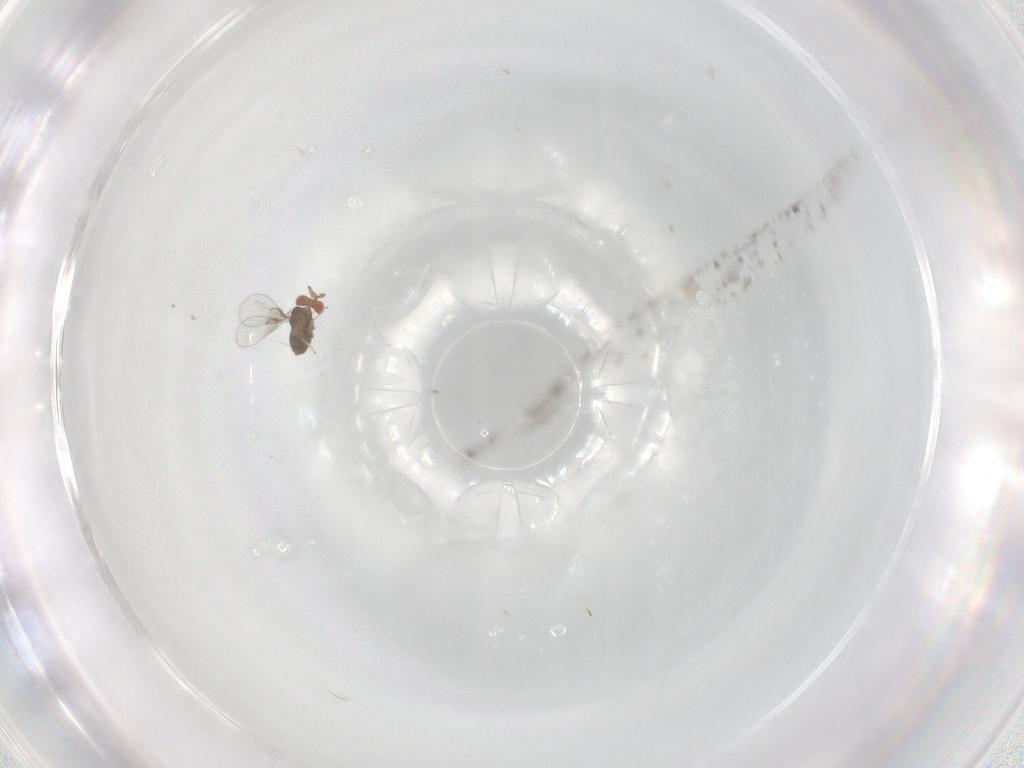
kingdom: Animalia
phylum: Arthropoda
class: Insecta
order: Hymenoptera
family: Trichogrammatidae
